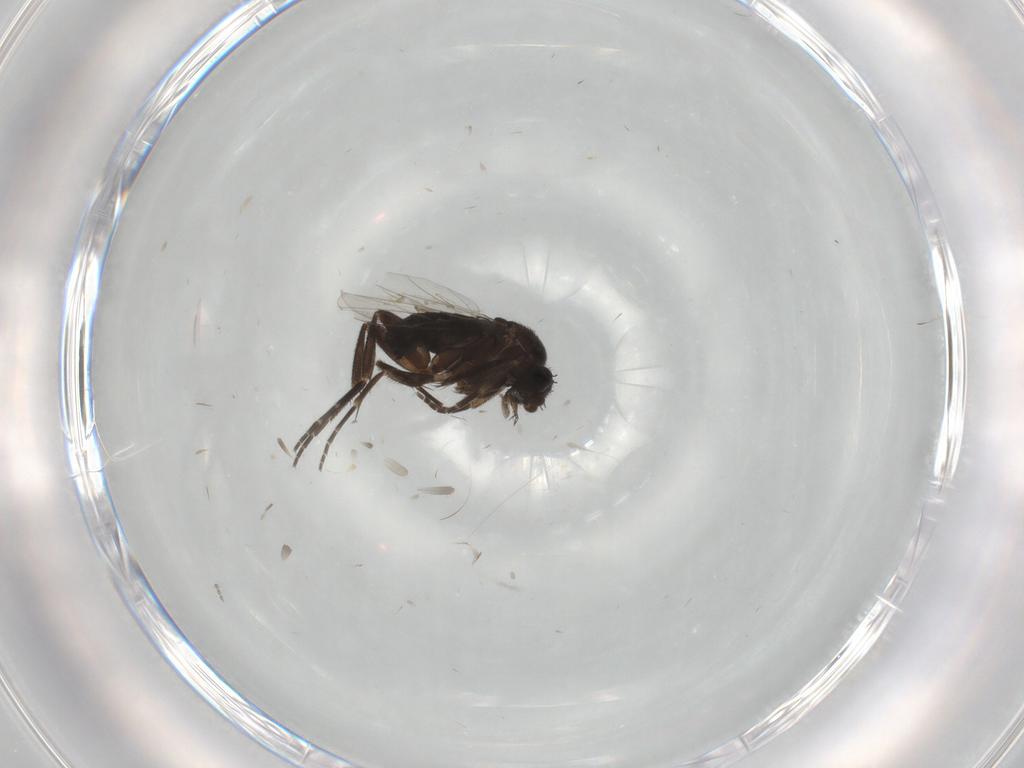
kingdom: Animalia
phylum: Arthropoda
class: Insecta
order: Diptera
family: Phoridae
